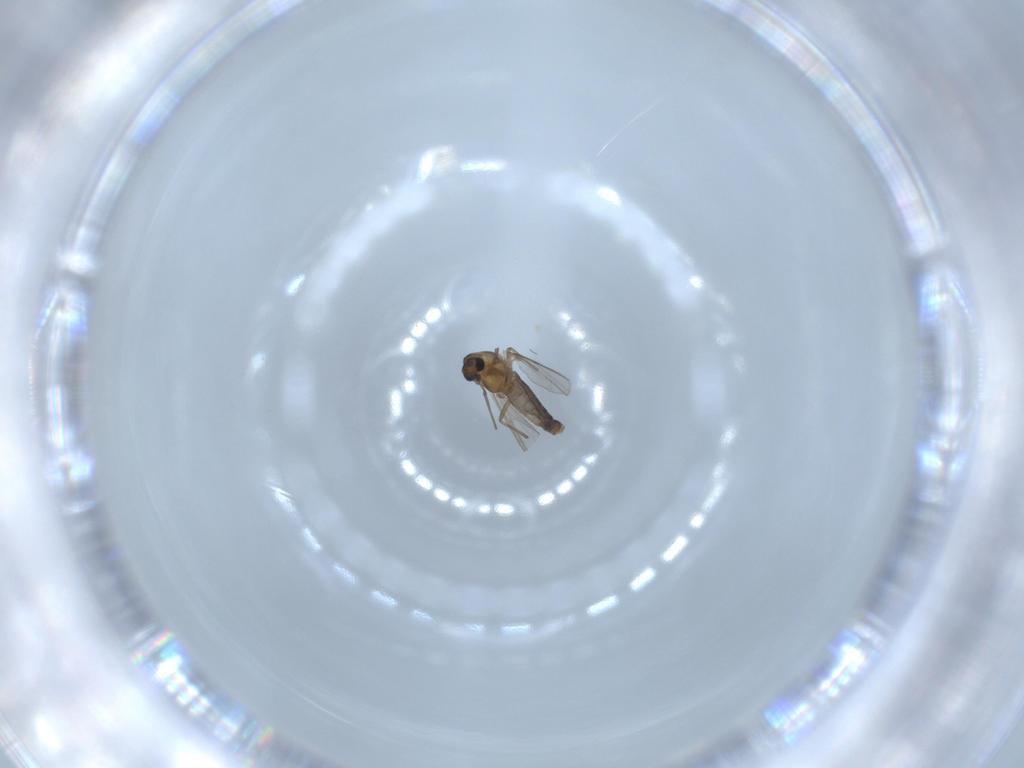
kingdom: Animalia
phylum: Arthropoda
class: Insecta
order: Diptera
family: Chironomidae
